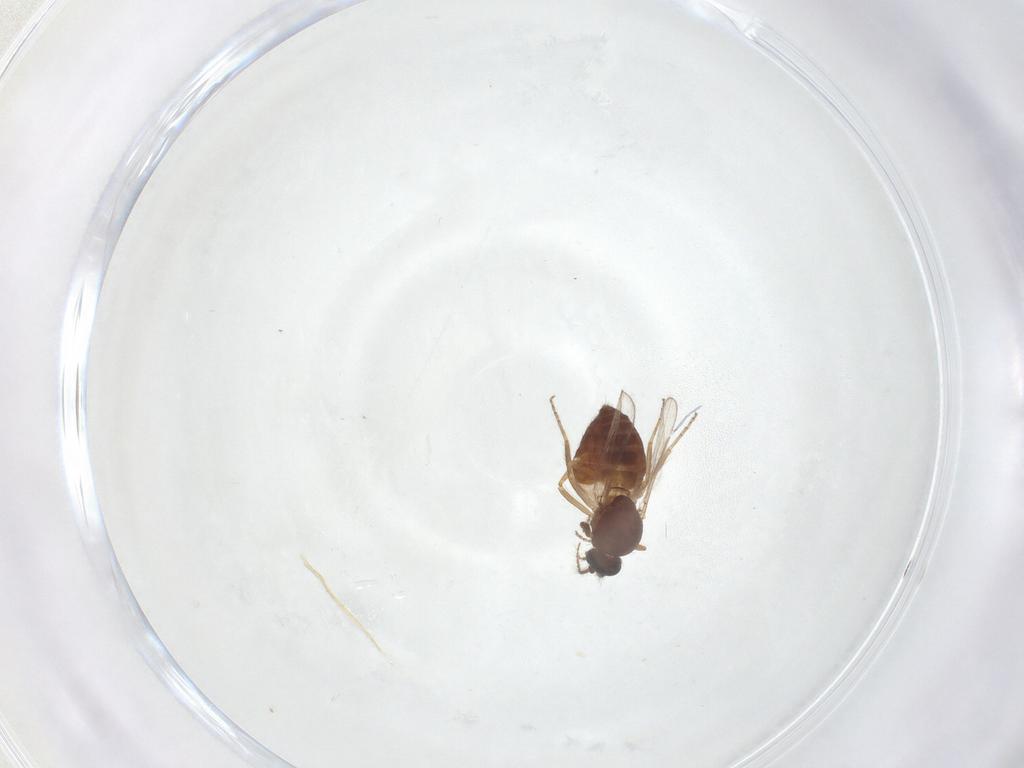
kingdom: Animalia
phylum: Arthropoda
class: Insecta
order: Diptera
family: Ceratopogonidae
